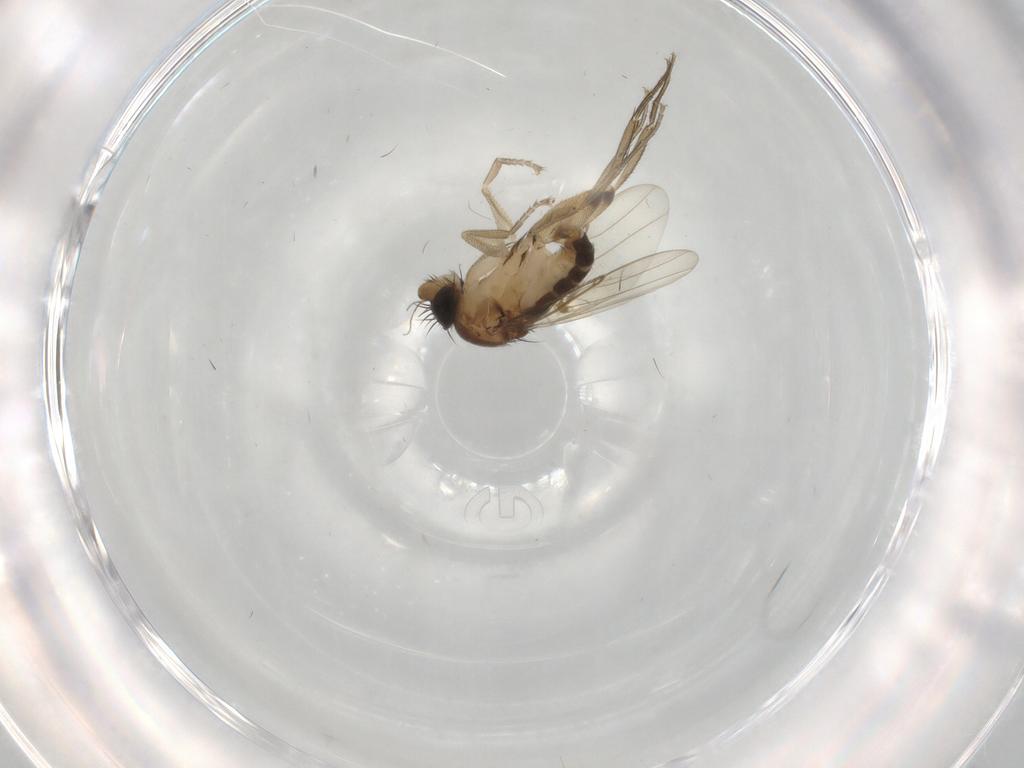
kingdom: Animalia
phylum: Arthropoda
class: Insecta
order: Diptera
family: Phoridae
